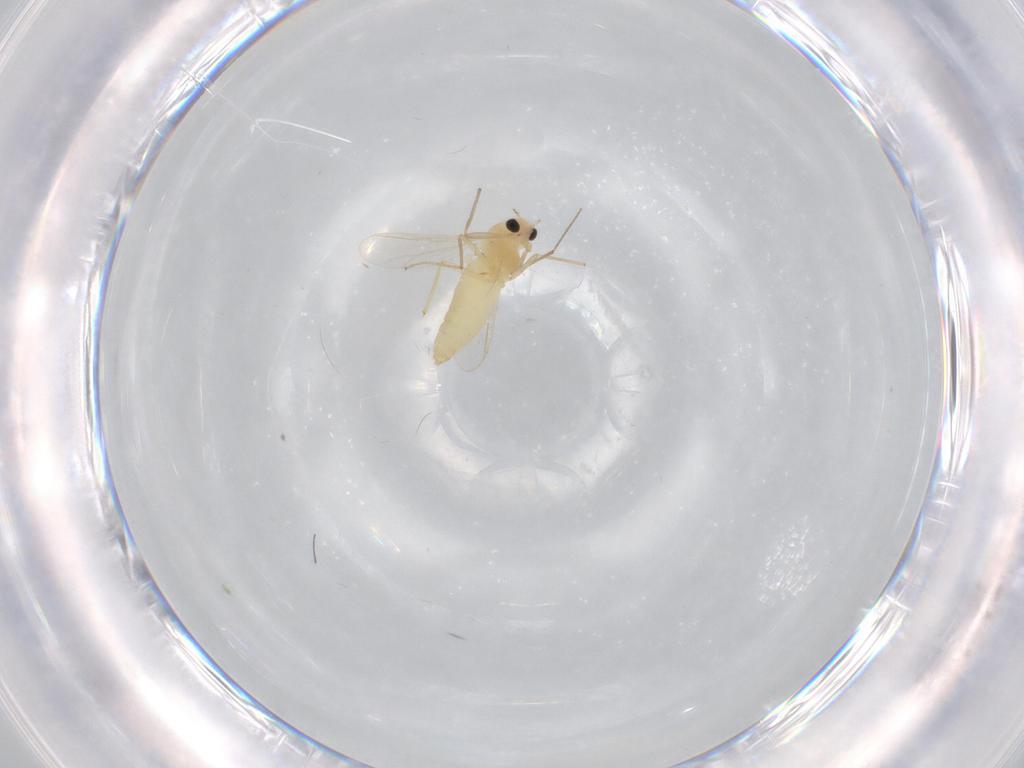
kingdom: Animalia
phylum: Arthropoda
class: Insecta
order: Diptera
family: Chironomidae
